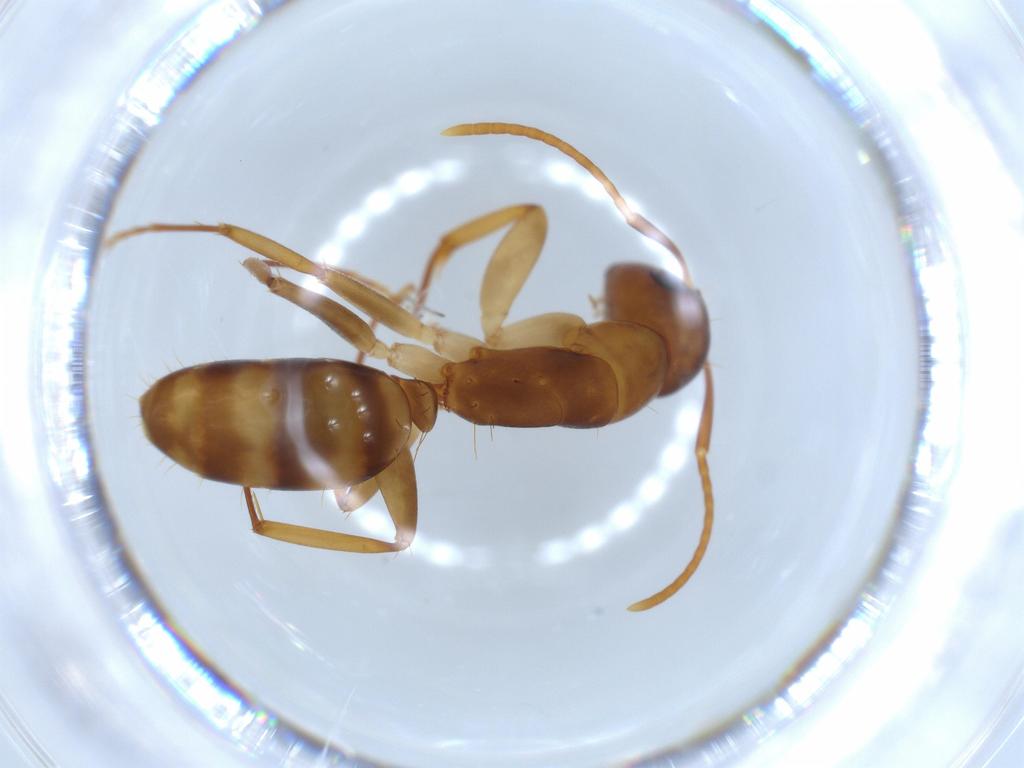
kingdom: Animalia
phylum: Arthropoda
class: Insecta
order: Hymenoptera
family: Formicidae
